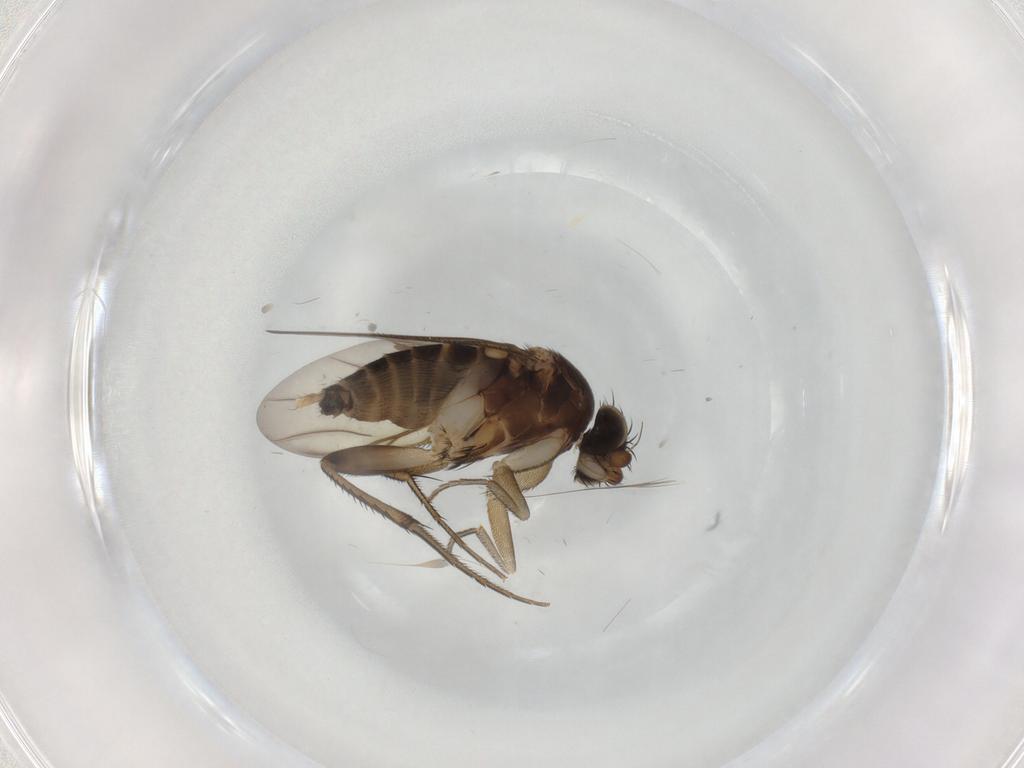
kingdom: Animalia
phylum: Arthropoda
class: Insecta
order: Diptera
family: Phoridae
